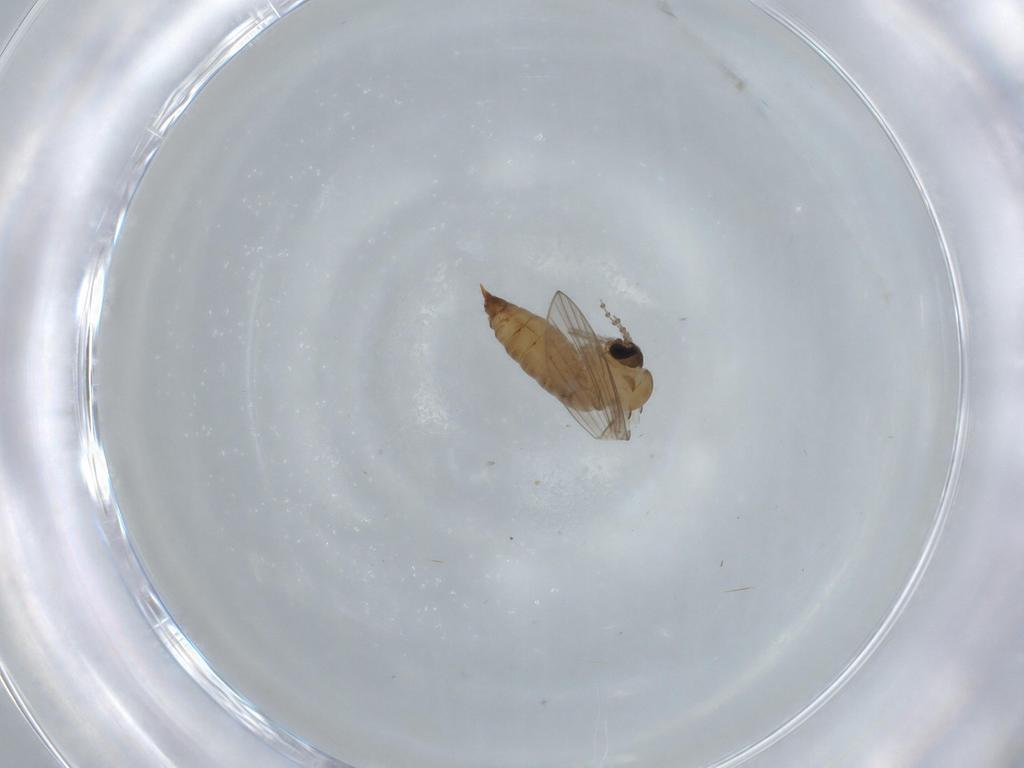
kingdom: Animalia
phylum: Arthropoda
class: Insecta
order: Diptera
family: Psychodidae
